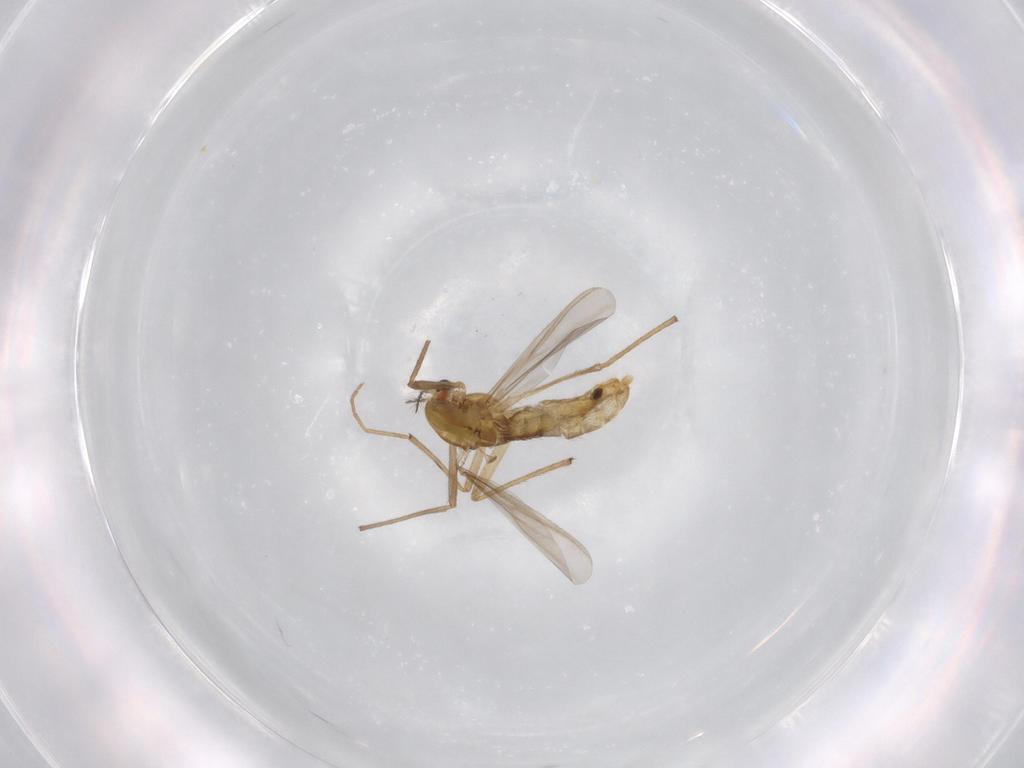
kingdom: Animalia
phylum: Arthropoda
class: Insecta
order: Diptera
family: Chironomidae
